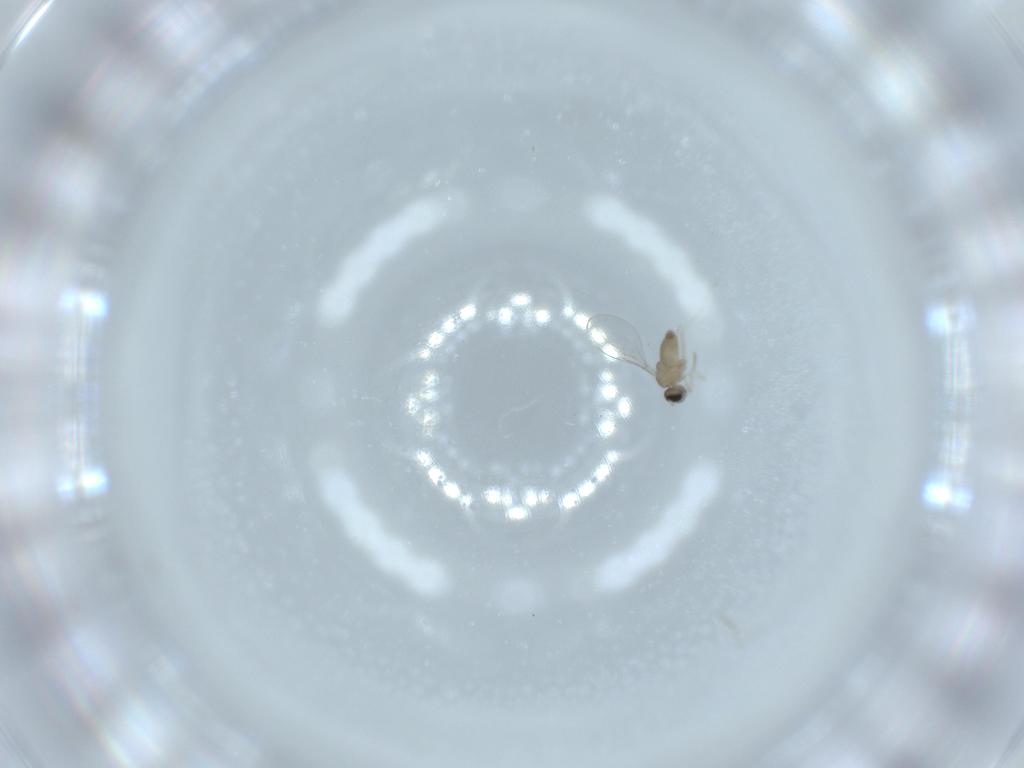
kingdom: Animalia
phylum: Arthropoda
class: Insecta
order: Diptera
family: Cecidomyiidae
